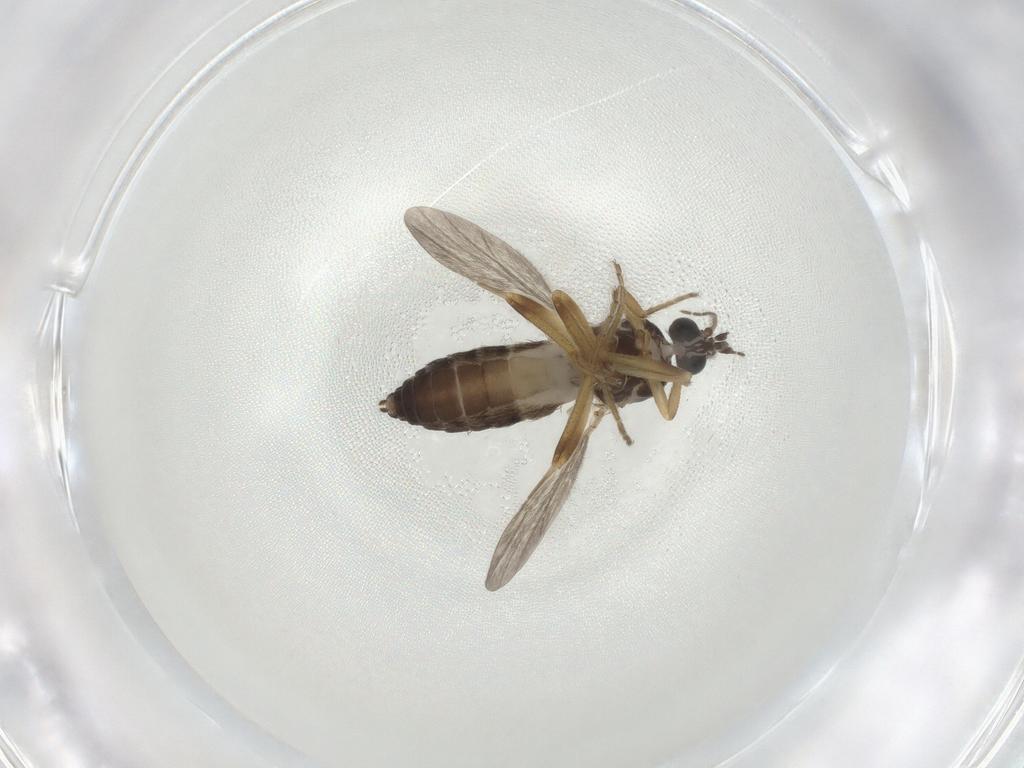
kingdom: Animalia
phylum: Arthropoda
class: Insecta
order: Diptera
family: Ceratopogonidae
